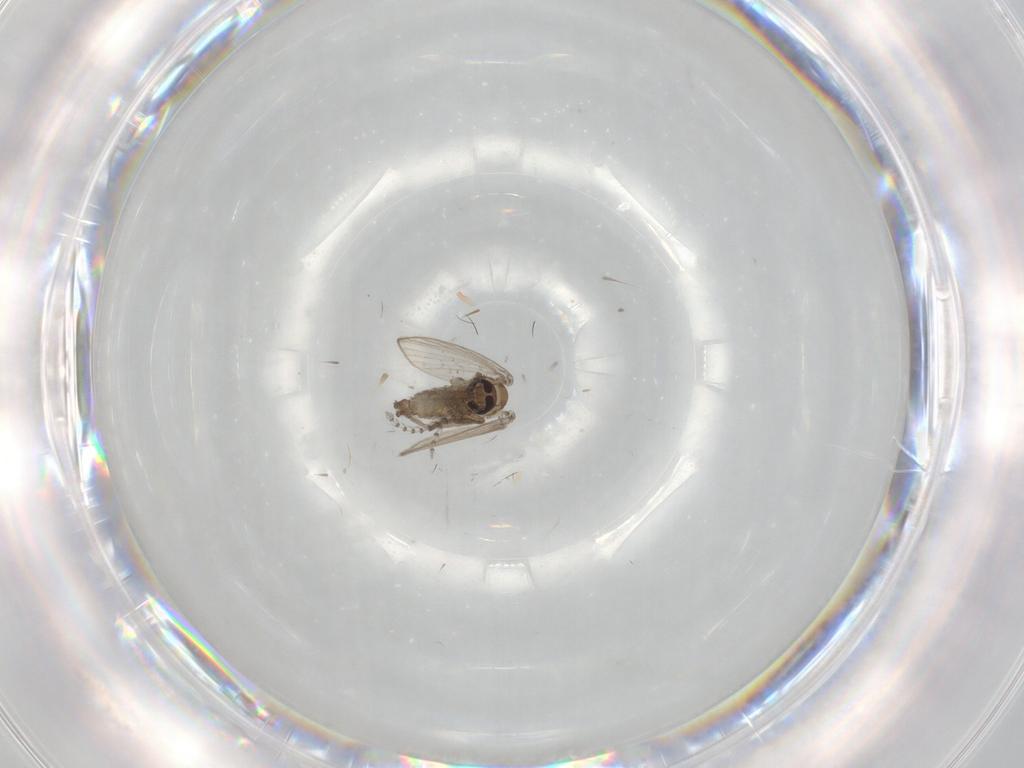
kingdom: Animalia
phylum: Arthropoda
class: Insecta
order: Diptera
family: Psychodidae
